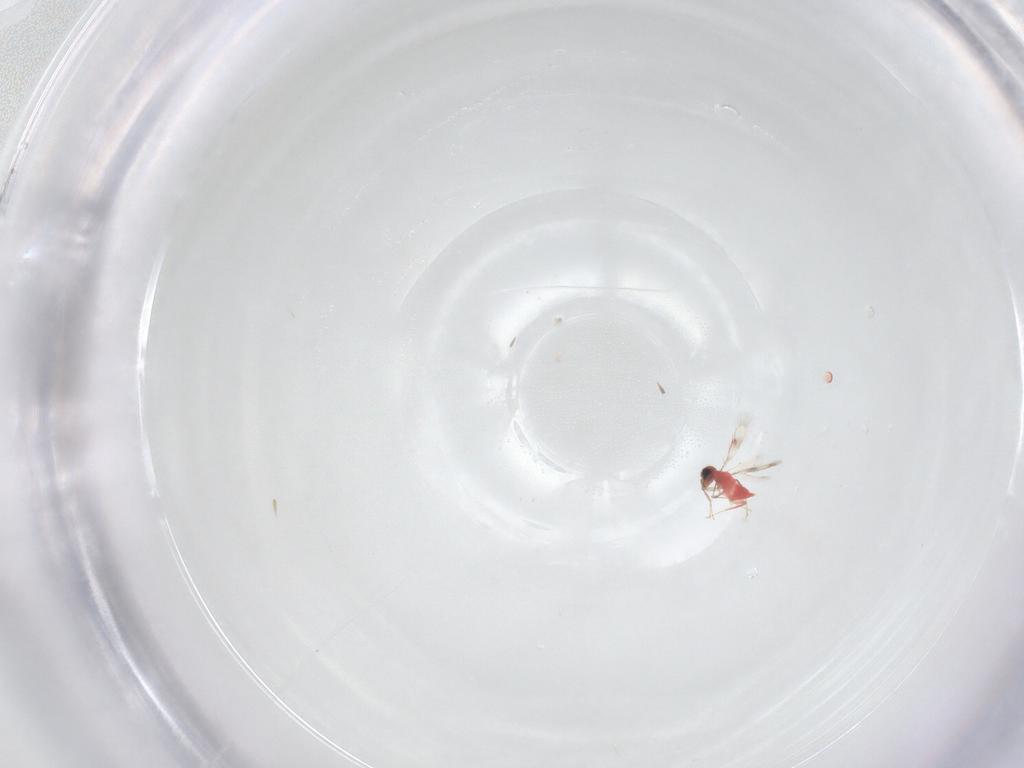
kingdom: Animalia
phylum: Arthropoda
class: Insecta
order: Hymenoptera
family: Trichogrammatidae
